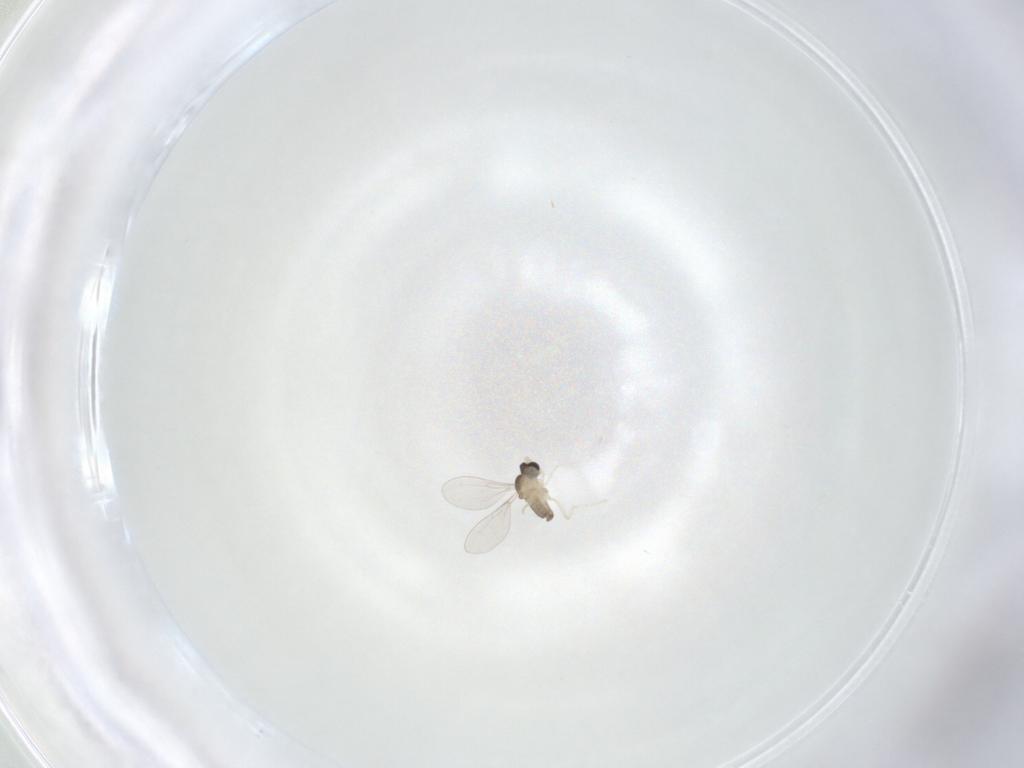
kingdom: Animalia
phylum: Arthropoda
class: Insecta
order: Diptera
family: Cecidomyiidae
